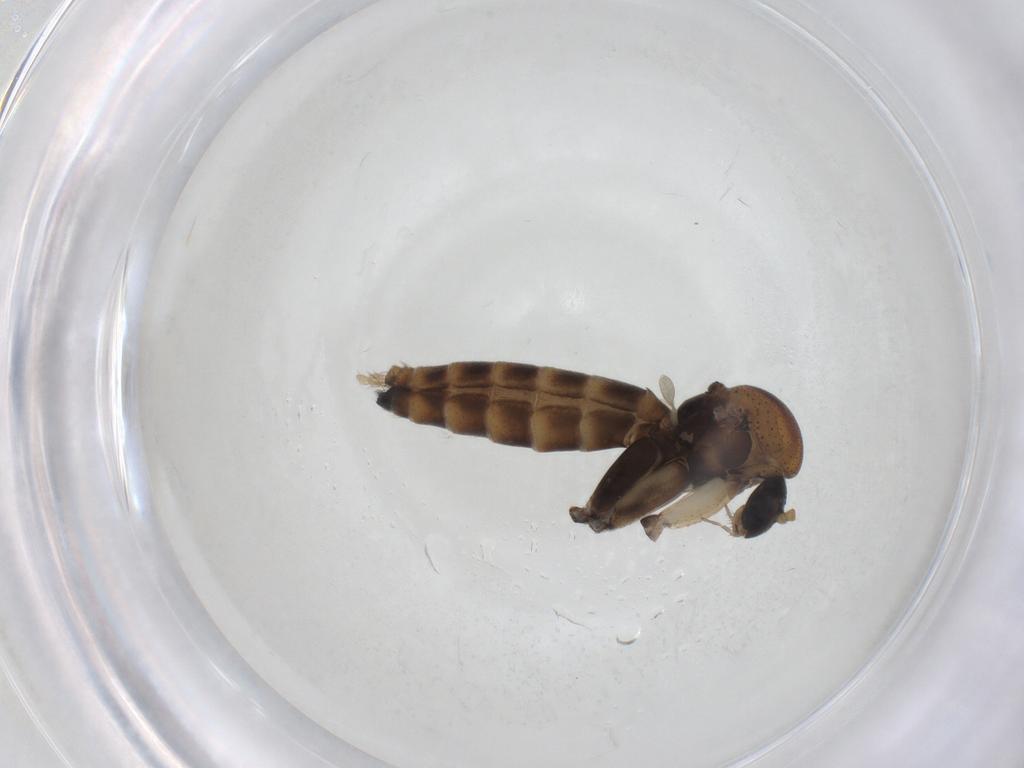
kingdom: Animalia
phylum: Arthropoda
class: Insecta
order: Diptera
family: Mycetophilidae
